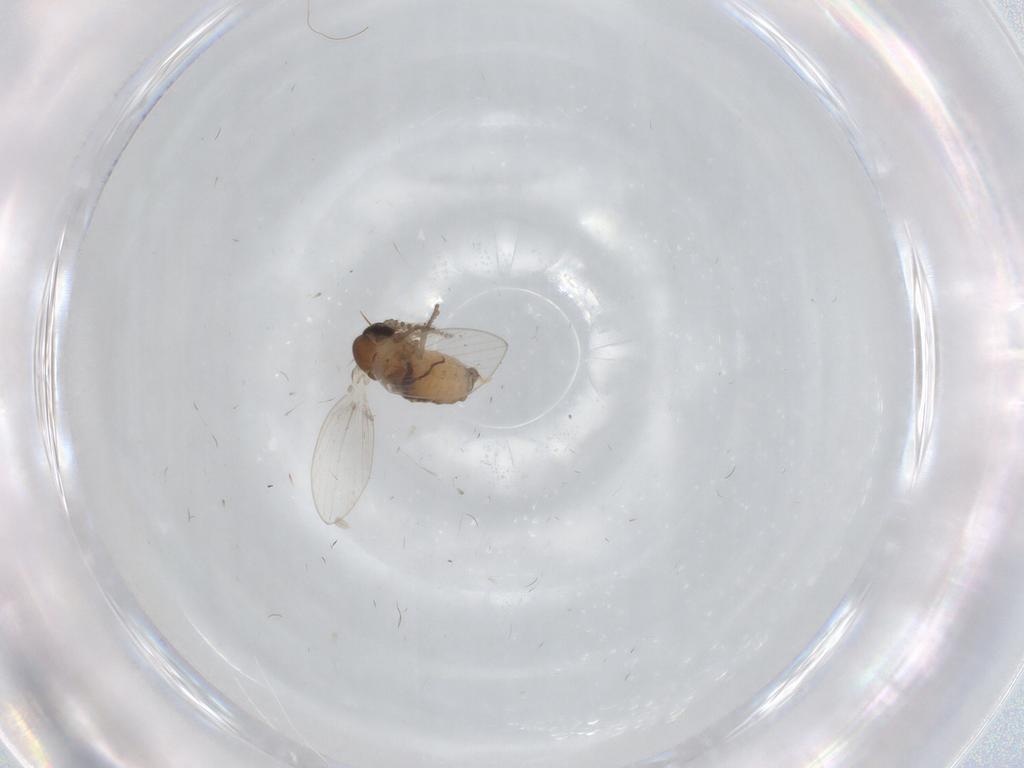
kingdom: Animalia
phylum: Arthropoda
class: Insecta
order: Diptera
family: Psychodidae
